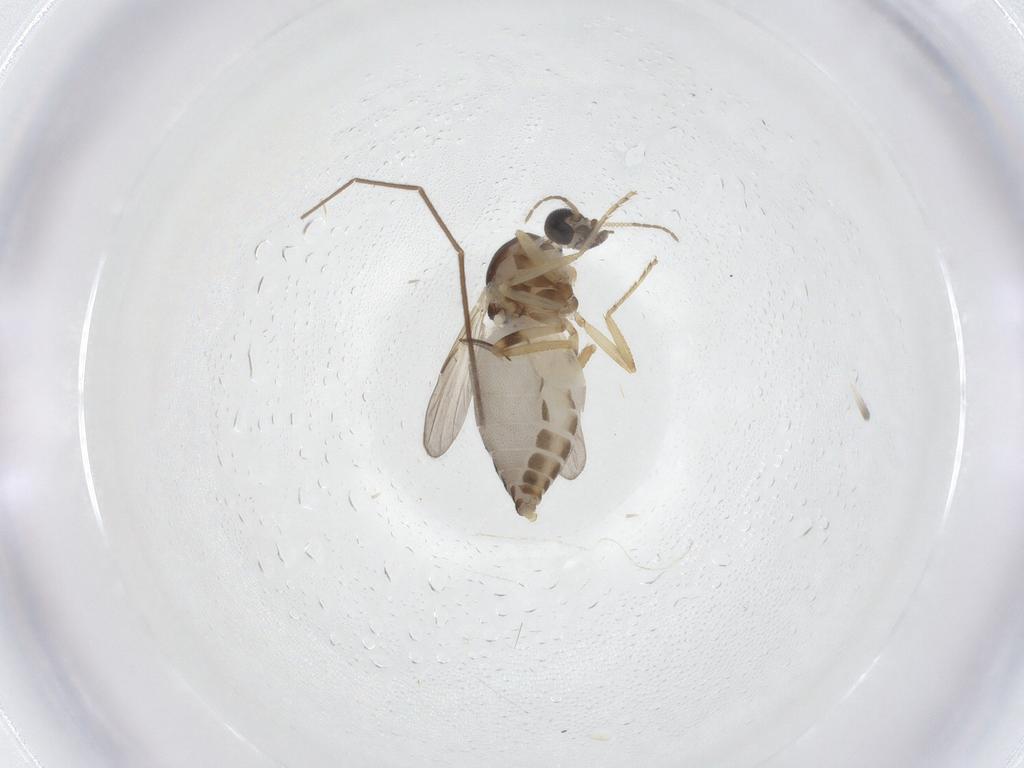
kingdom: Animalia
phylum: Arthropoda
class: Insecta
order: Diptera
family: Ceratopogonidae
